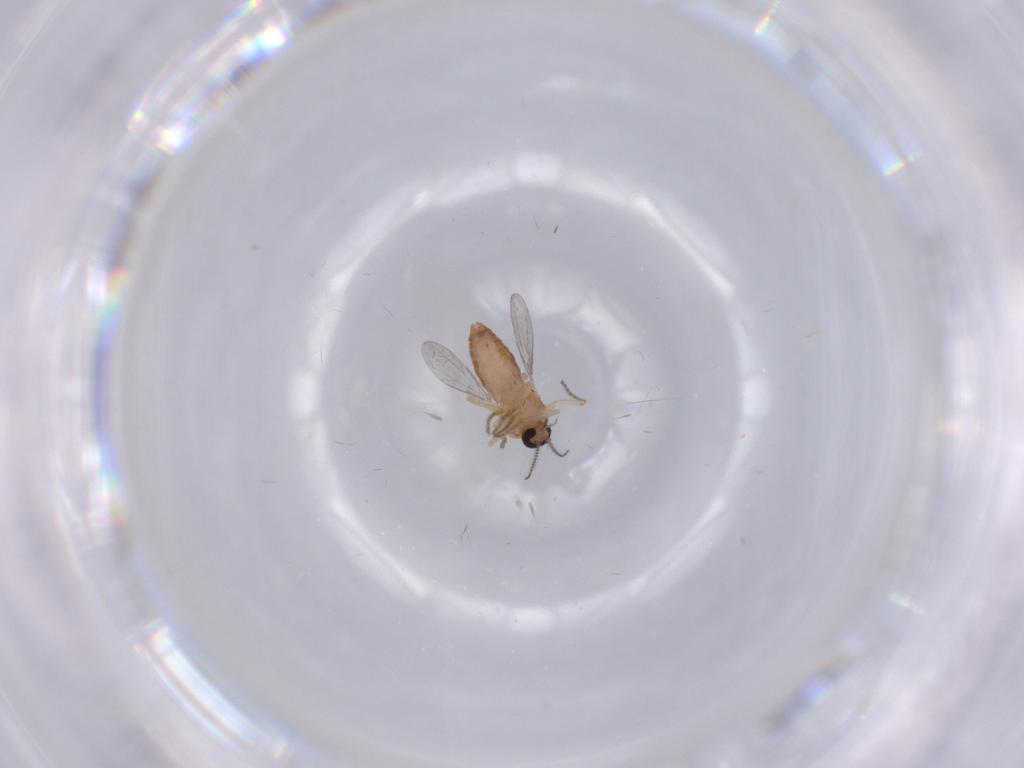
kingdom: Animalia
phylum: Arthropoda
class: Insecta
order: Diptera
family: Ceratopogonidae
